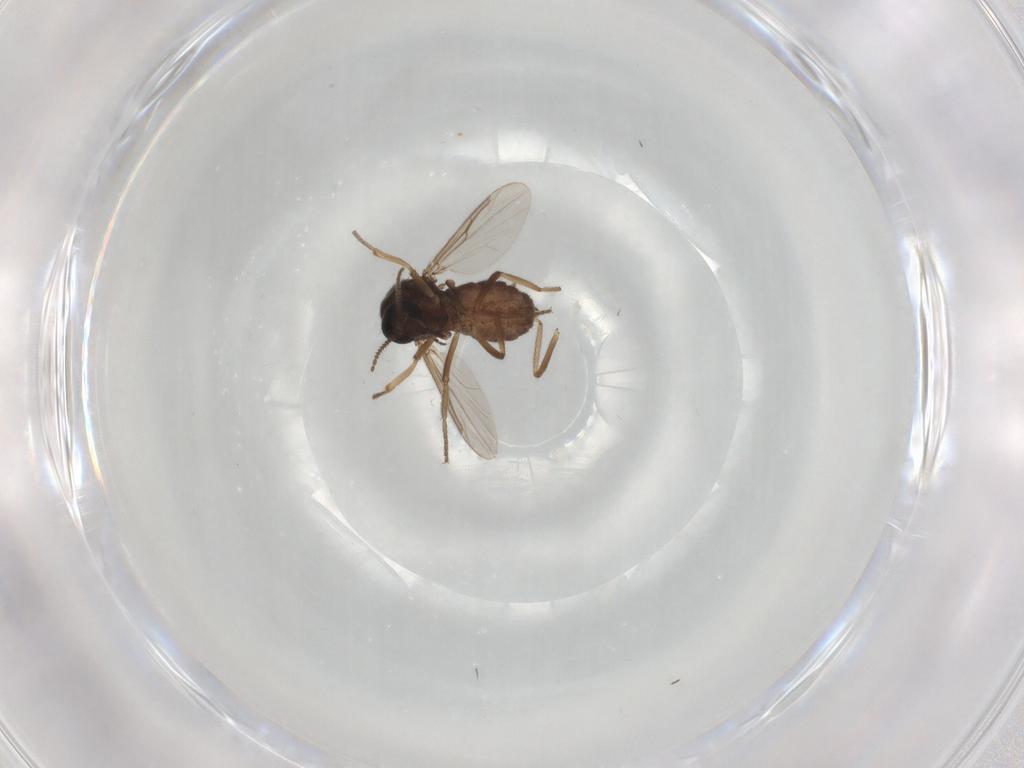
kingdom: Animalia
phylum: Arthropoda
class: Insecta
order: Diptera
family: Ceratopogonidae
